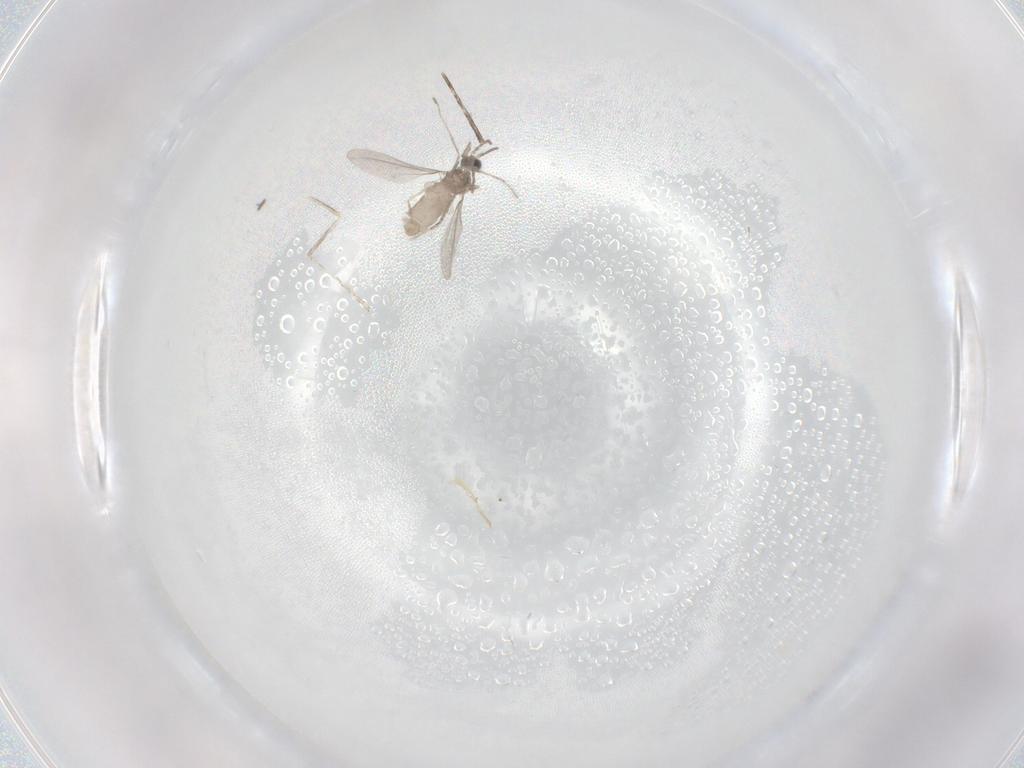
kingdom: Animalia
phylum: Arthropoda
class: Insecta
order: Diptera
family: Cecidomyiidae
